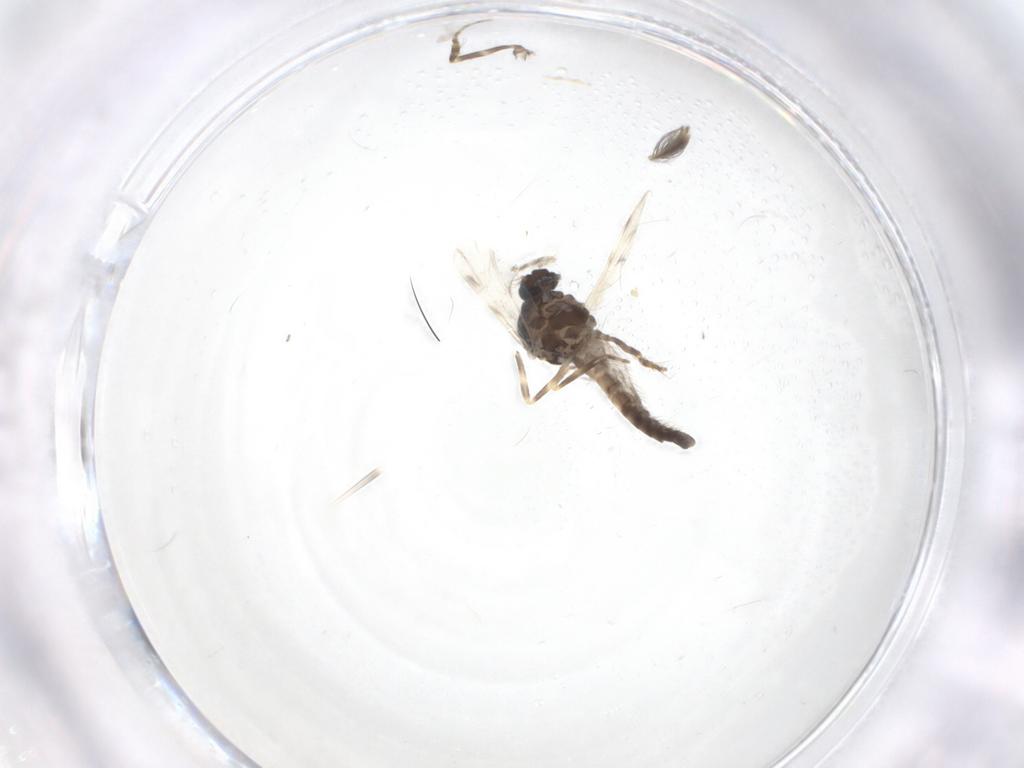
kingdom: Animalia
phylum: Arthropoda
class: Insecta
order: Diptera
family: Ceratopogonidae
